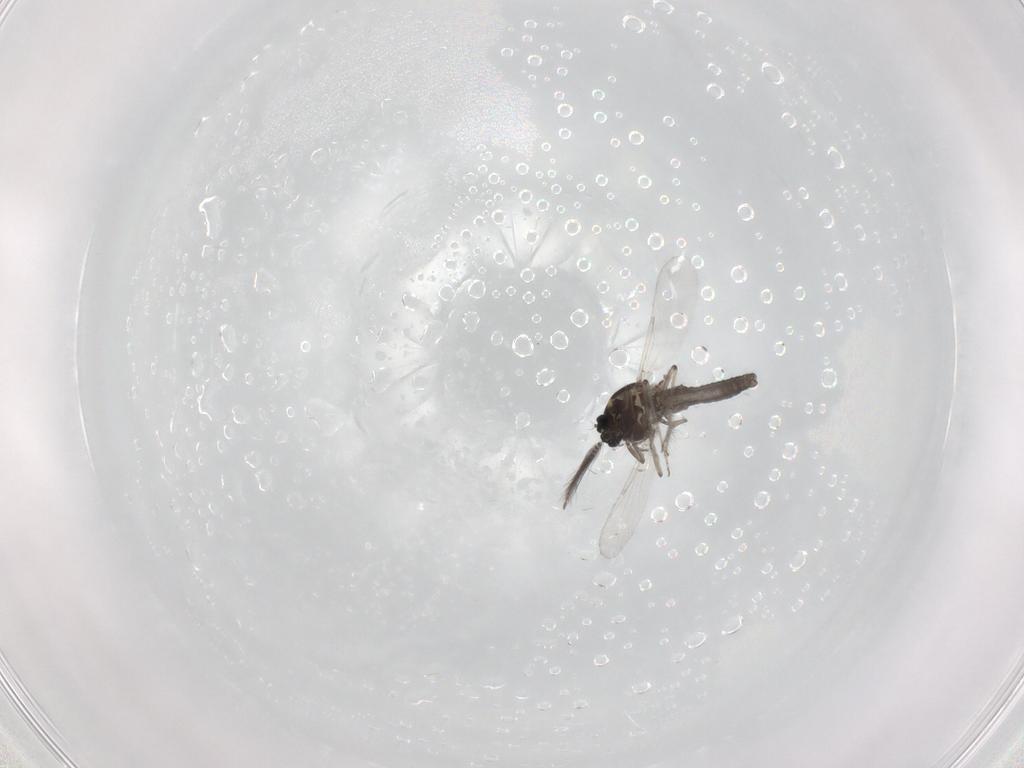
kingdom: Animalia
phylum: Arthropoda
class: Insecta
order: Diptera
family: Ceratopogonidae
